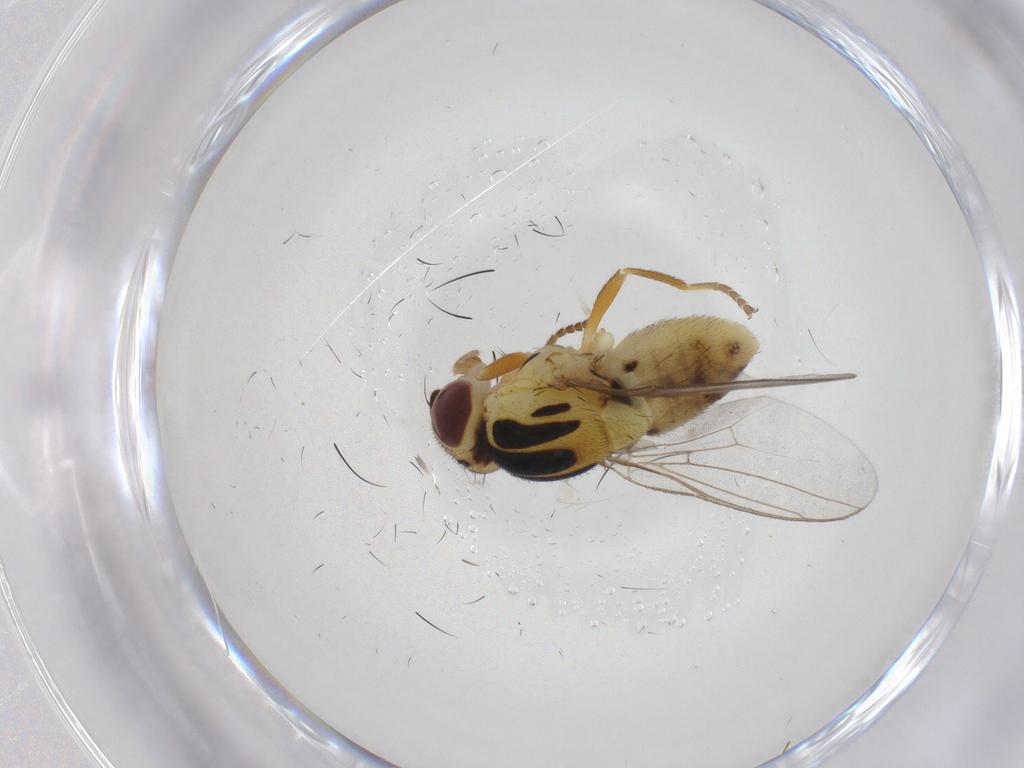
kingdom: Animalia
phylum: Arthropoda
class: Insecta
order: Diptera
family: Chloropidae
